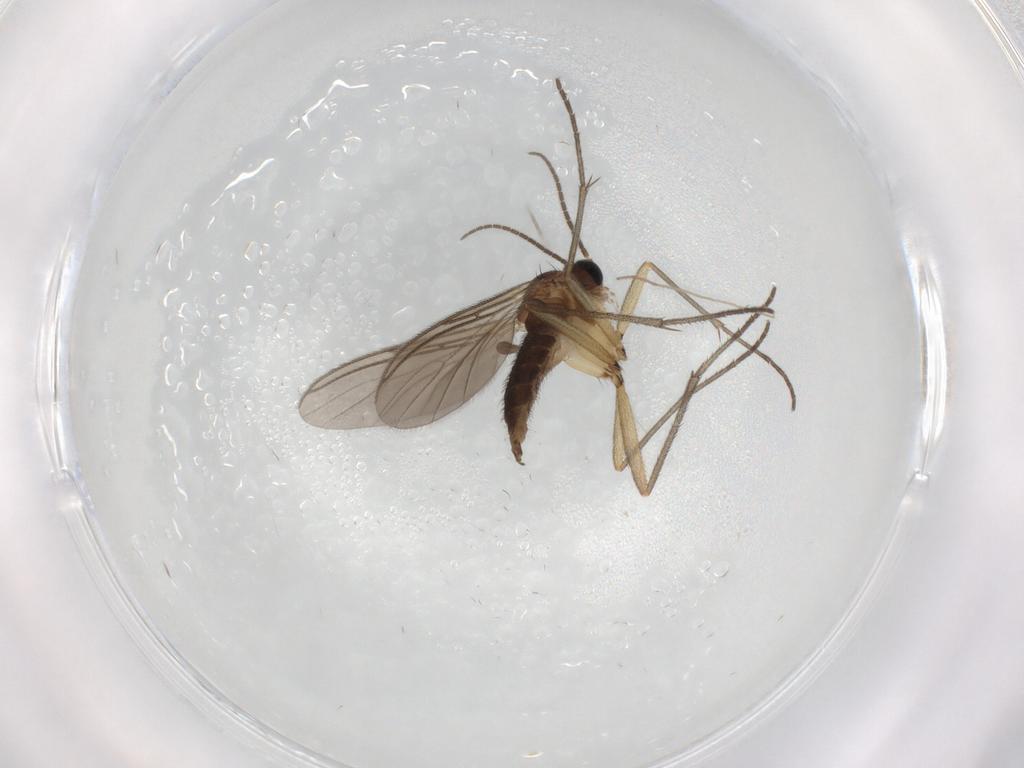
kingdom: Animalia
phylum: Arthropoda
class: Insecta
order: Diptera
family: Sciaridae
